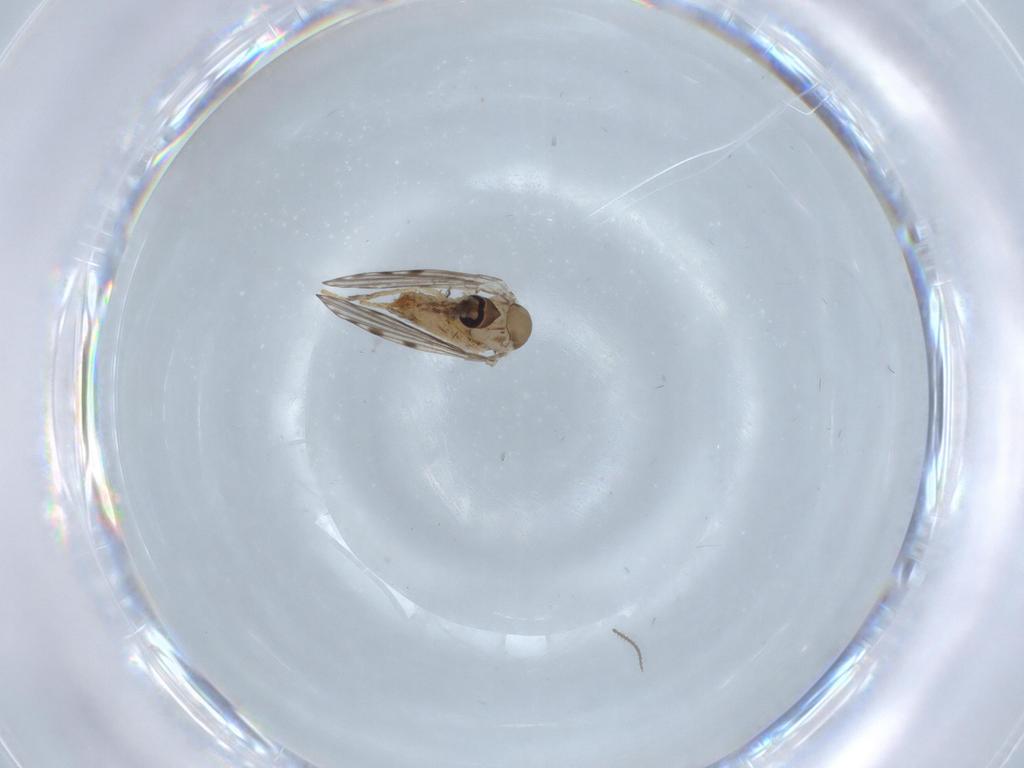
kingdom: Animalia
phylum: Arthropoda
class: Insecta
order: Diptera
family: Psychodidae
